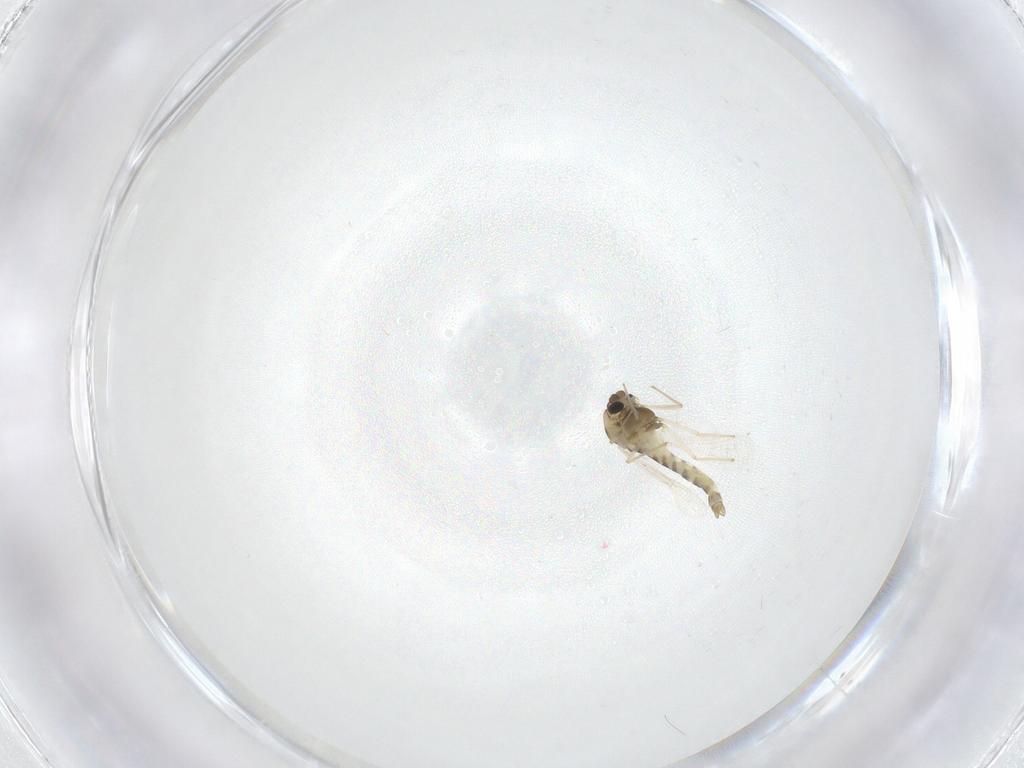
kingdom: Animalia
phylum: Arthropoda
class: Insecta
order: Diptera
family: Chironomidae
